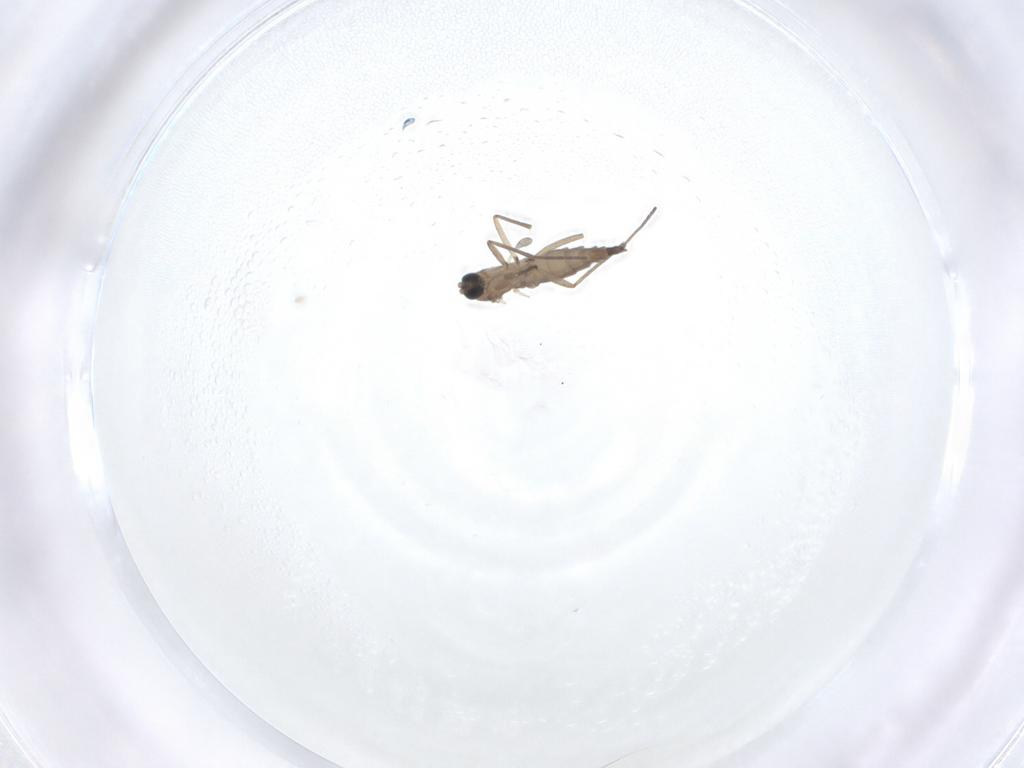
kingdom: Animalia
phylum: Arthropoda
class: Insecta
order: Diptera
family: Sciaridae
